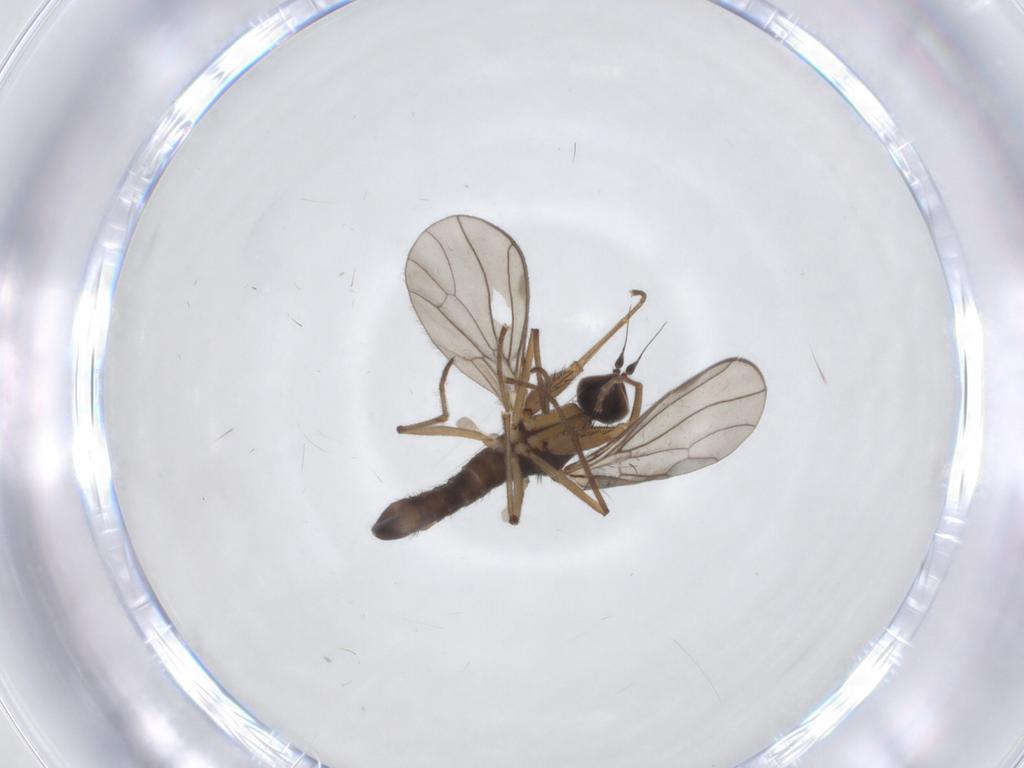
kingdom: Animalia
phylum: Arthropoda
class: Insecta
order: Diptera
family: Empididae
